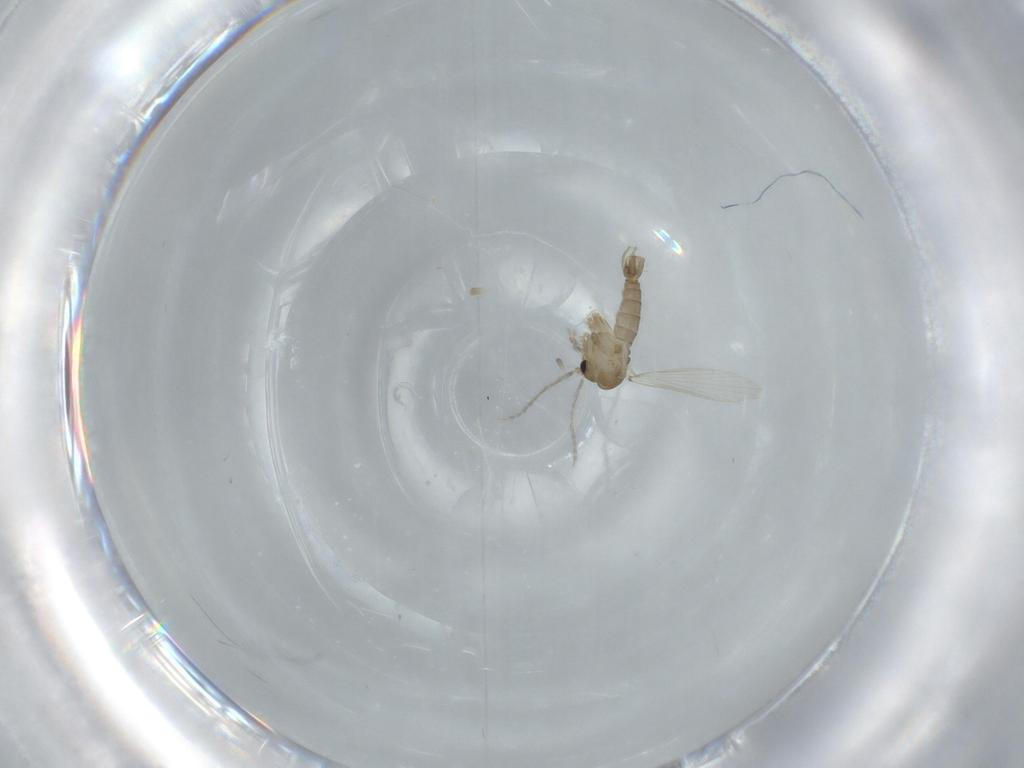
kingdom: Animalia
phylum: Arthropoda
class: Insecta
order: Diptera
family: Psychodidae
